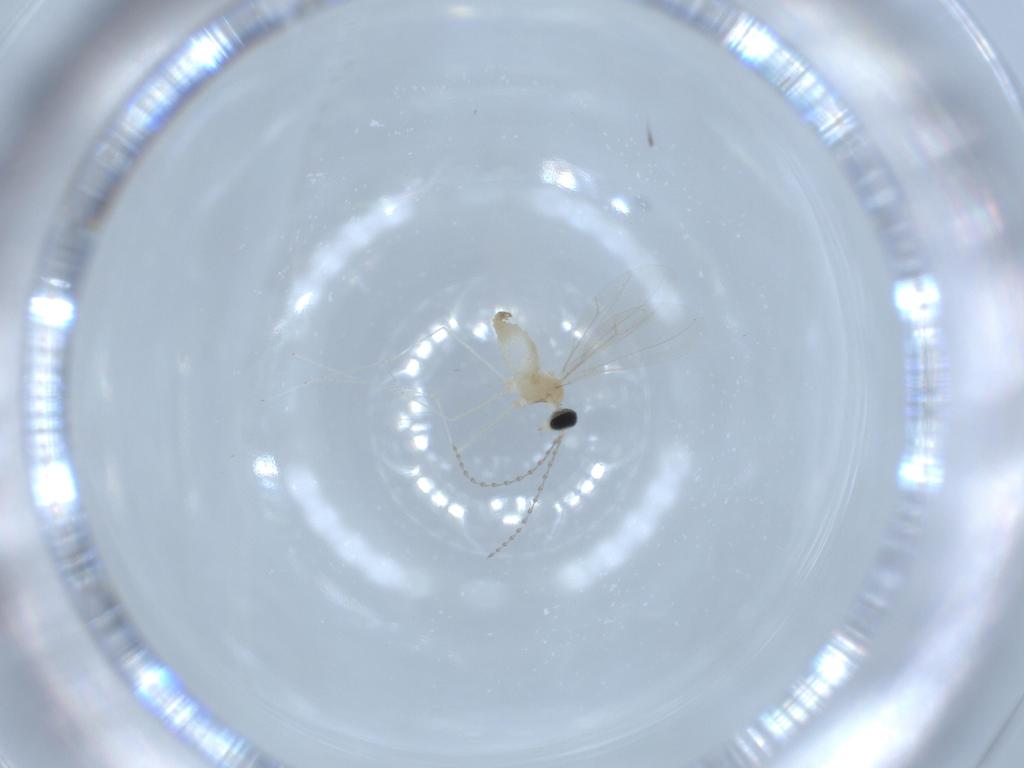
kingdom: Animalia
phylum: Arthropoda
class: Insecta
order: Diptera
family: Cecidomyiidae
